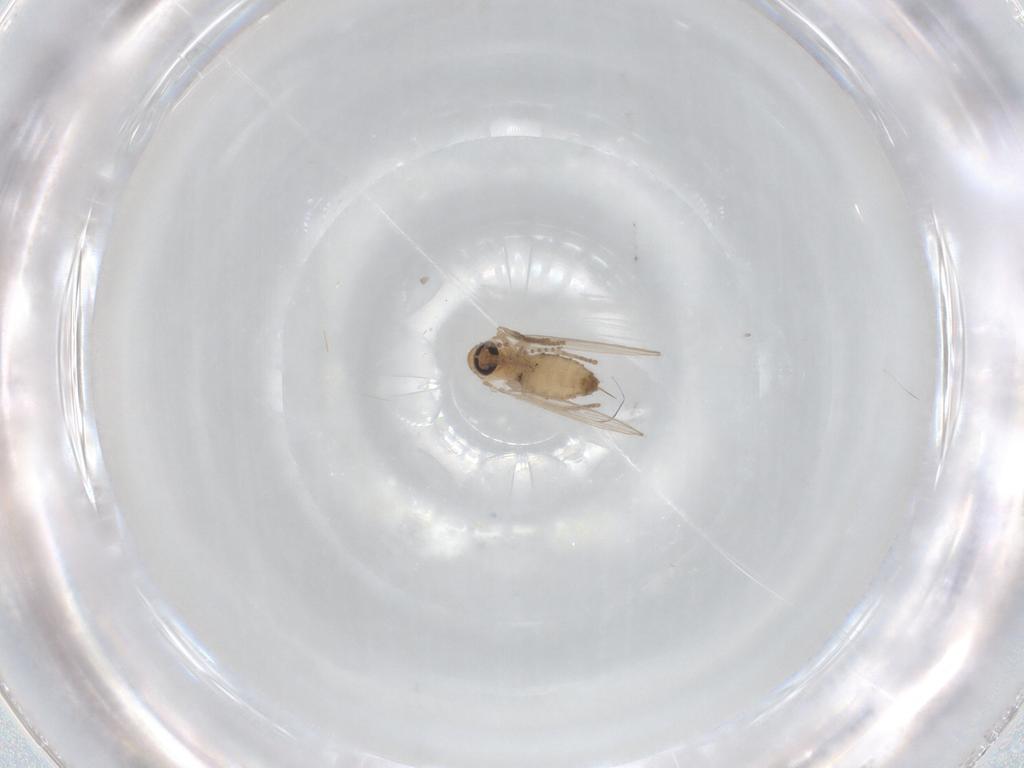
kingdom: Animalia
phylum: Arthropoda
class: Insecta
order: Diptera
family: Psychodidae
